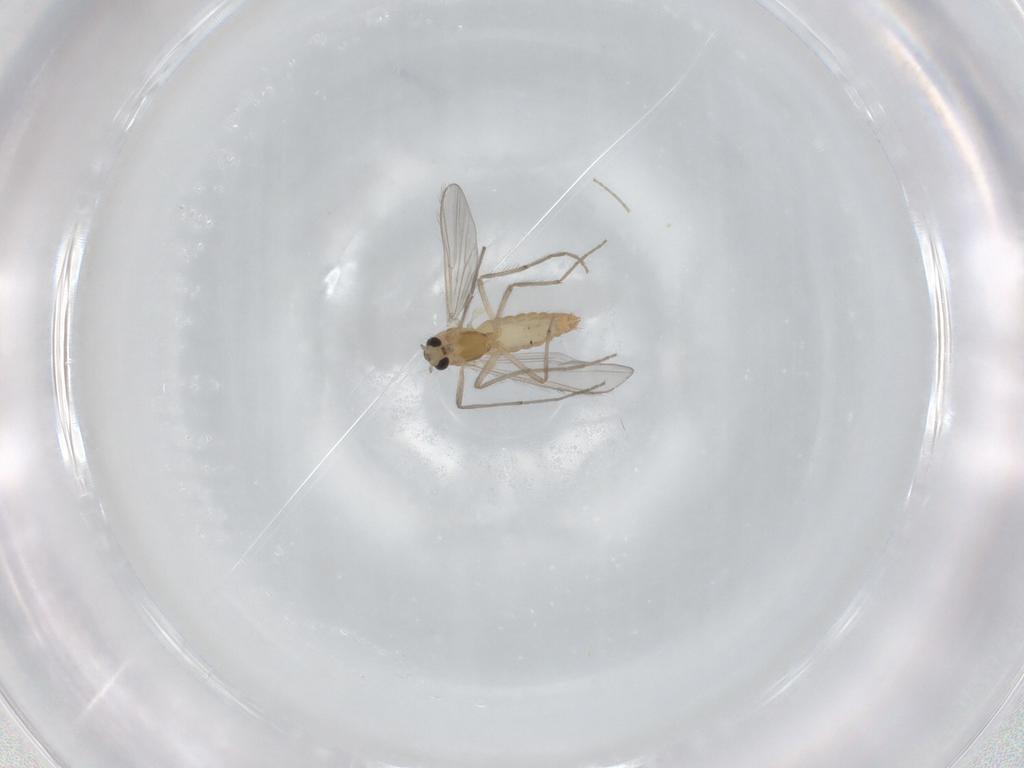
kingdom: Animalia
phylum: Arthropoda
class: Insecta
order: Diptera
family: Chironomidae
